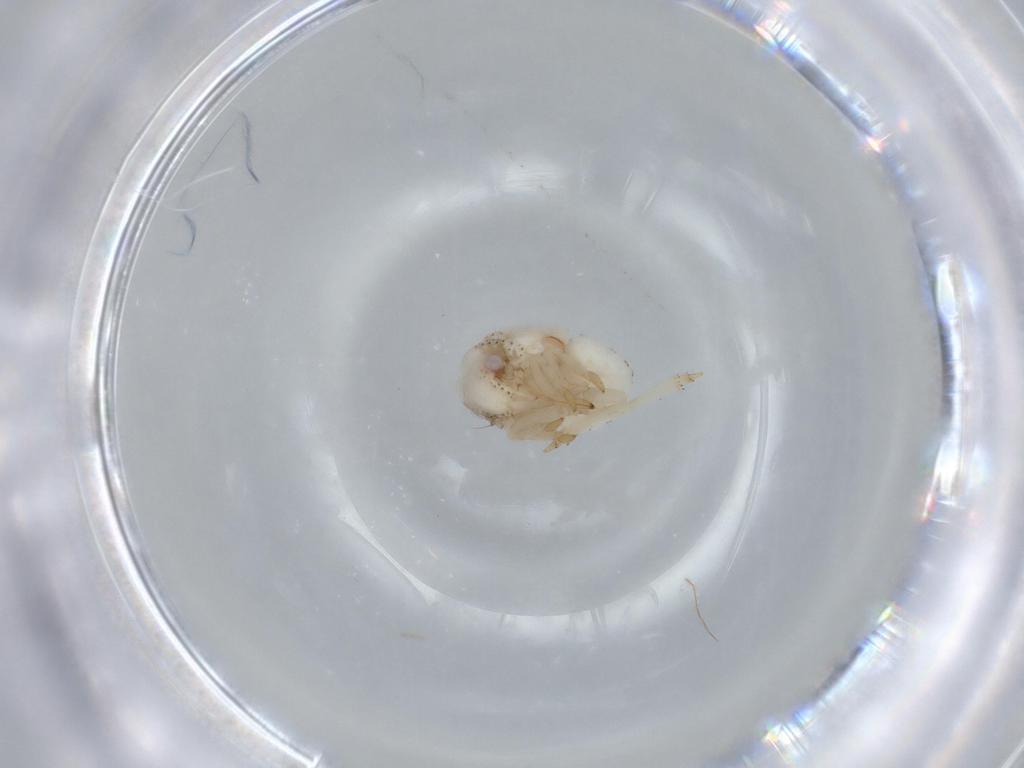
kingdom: Animalia
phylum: Arthropoda
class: Insecta
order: Hemiptera
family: Acanaloniidae
